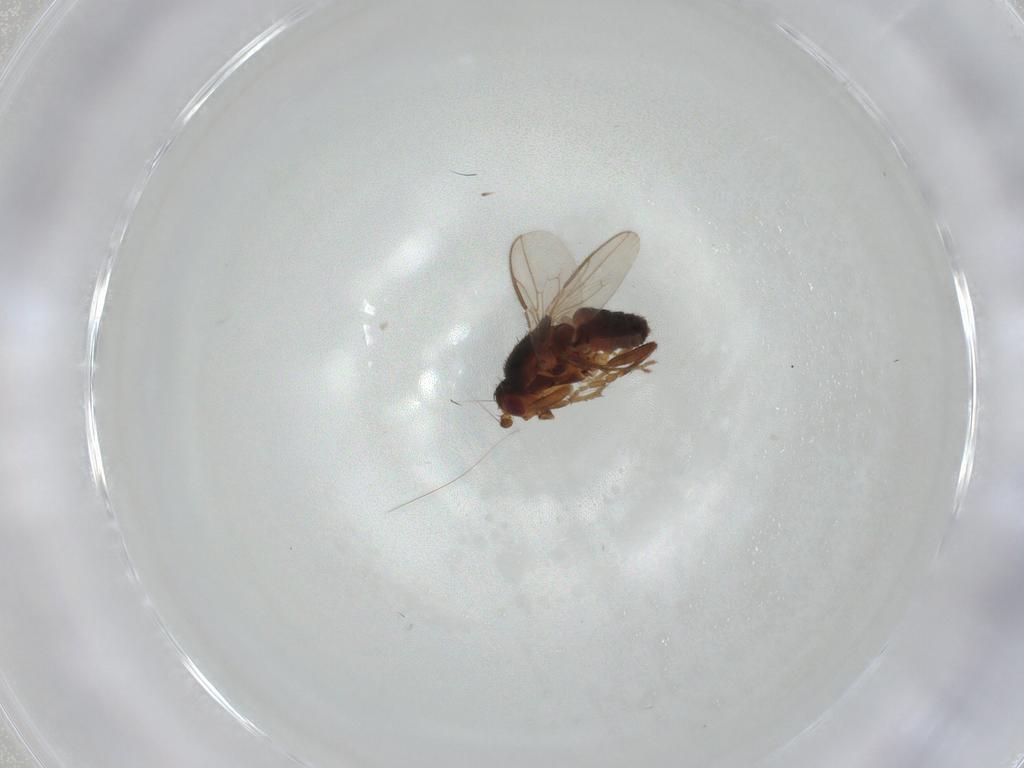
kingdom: Animalia
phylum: Arthropoda
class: Insecta
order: Diptera
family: Sphaeroceridae
